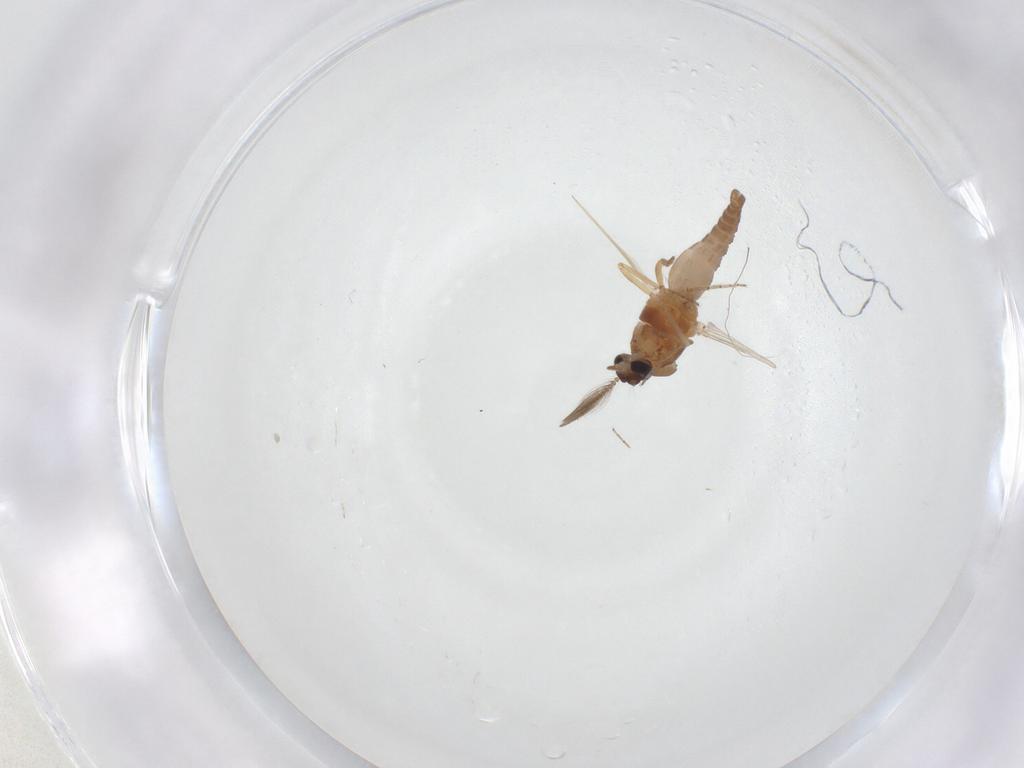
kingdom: Animalia
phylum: Arthropoda
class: Insecta
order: Diptera
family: Ceratopogonidae
